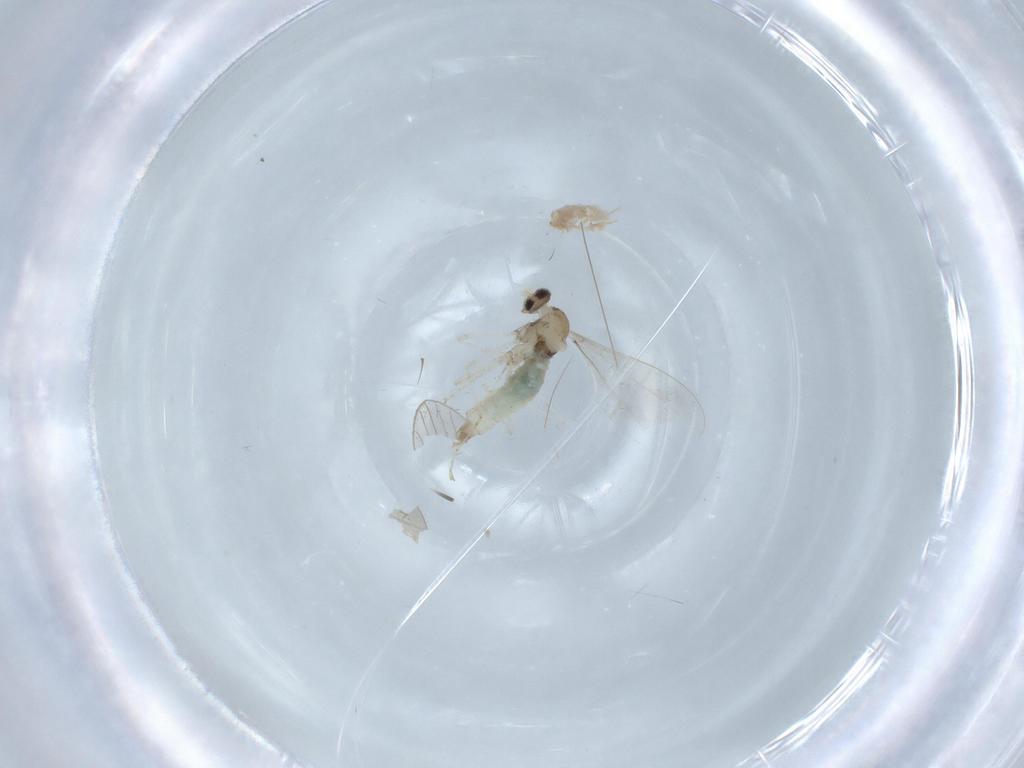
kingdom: Animalia
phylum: Arthropoda
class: Insecta
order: Diptera
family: Cecidomyiidae
